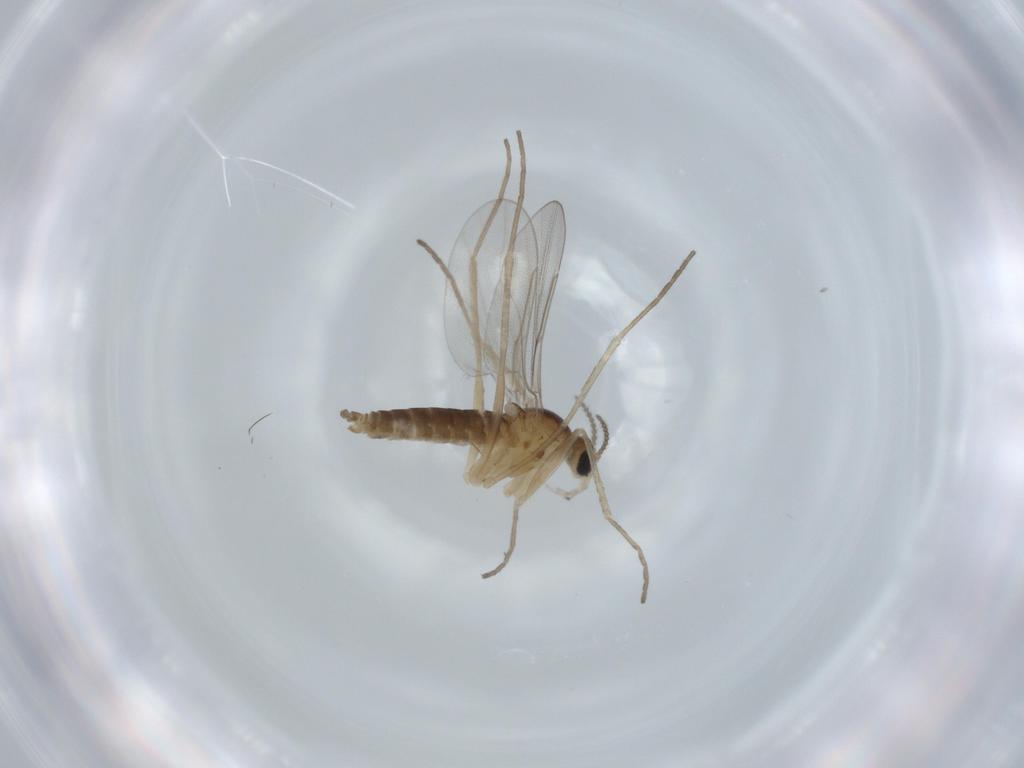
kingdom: Animalia
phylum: Arthropoda
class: Insecta
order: Diptera
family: Cecidomyiidae
